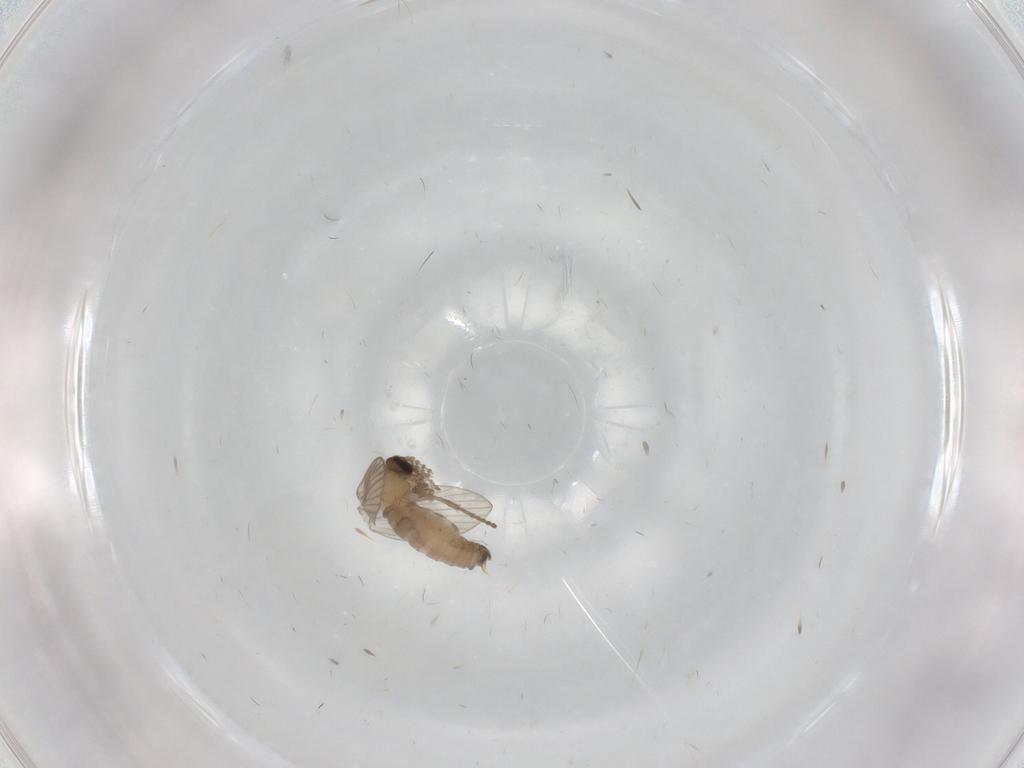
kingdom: Animalia
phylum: Arthropoda
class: Insecta
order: Diptera
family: Psychodidae
